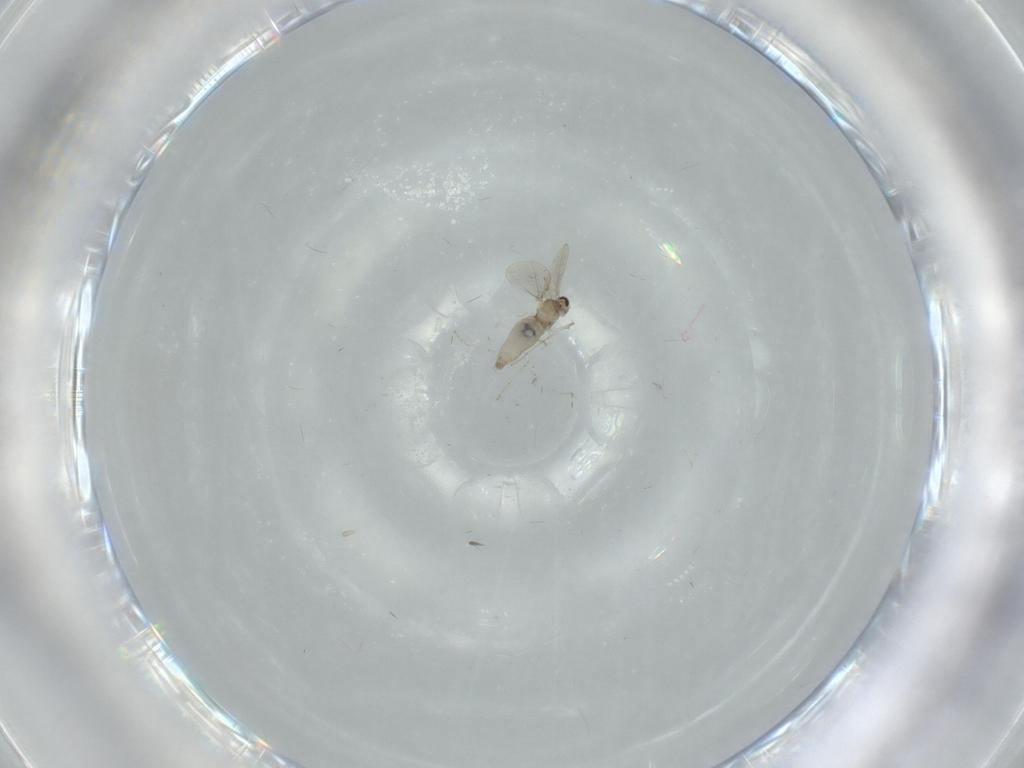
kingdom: Animalia
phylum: Arthropoda
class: Insecta
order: Diptera
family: Cecidomyiidae
